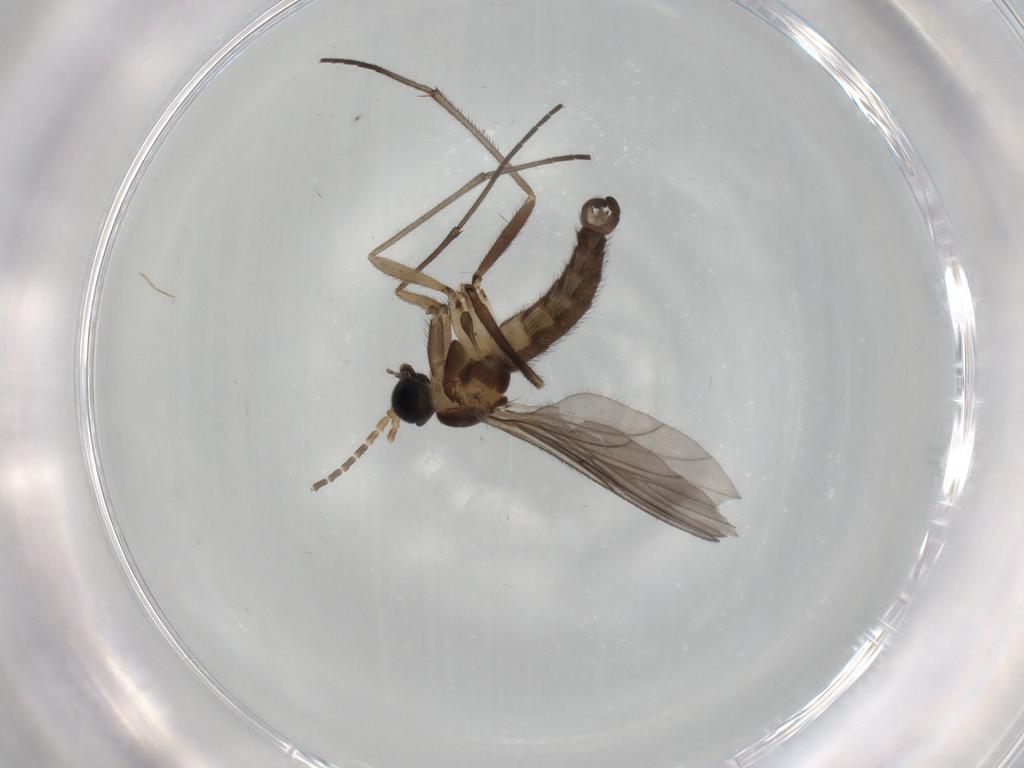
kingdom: Animalia
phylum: Arthropoda
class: Insecta
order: Diptera
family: Sciaridae
